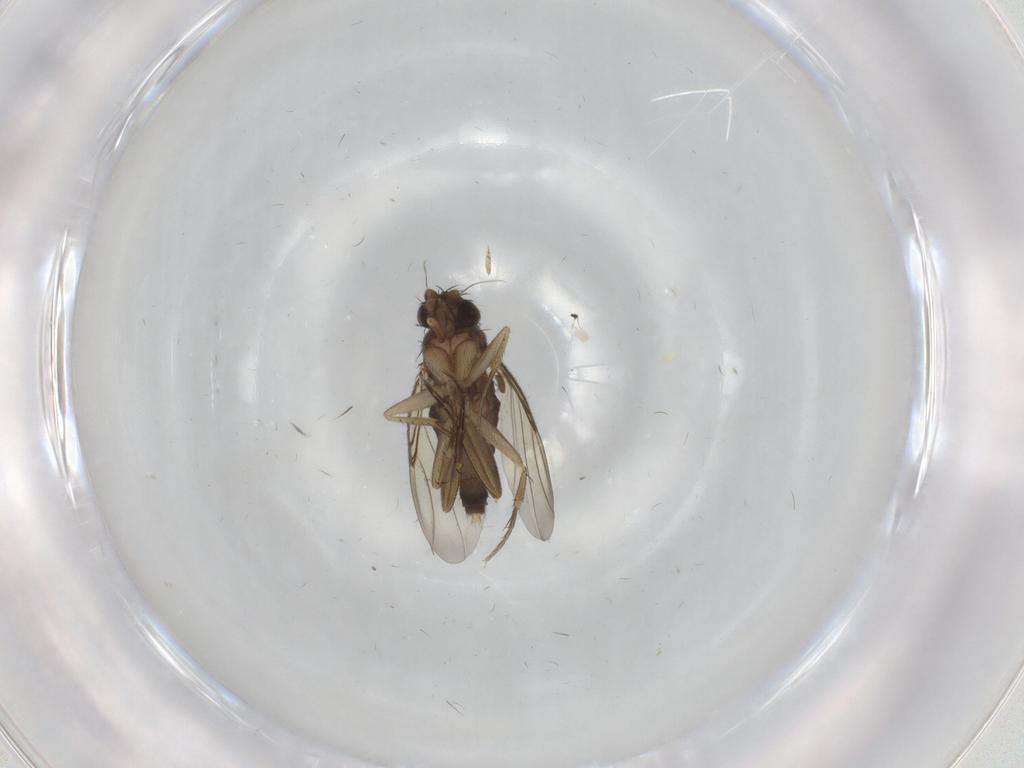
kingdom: Animalia
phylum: Arthropoda
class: Insecta
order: Diptera
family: Phoridae
